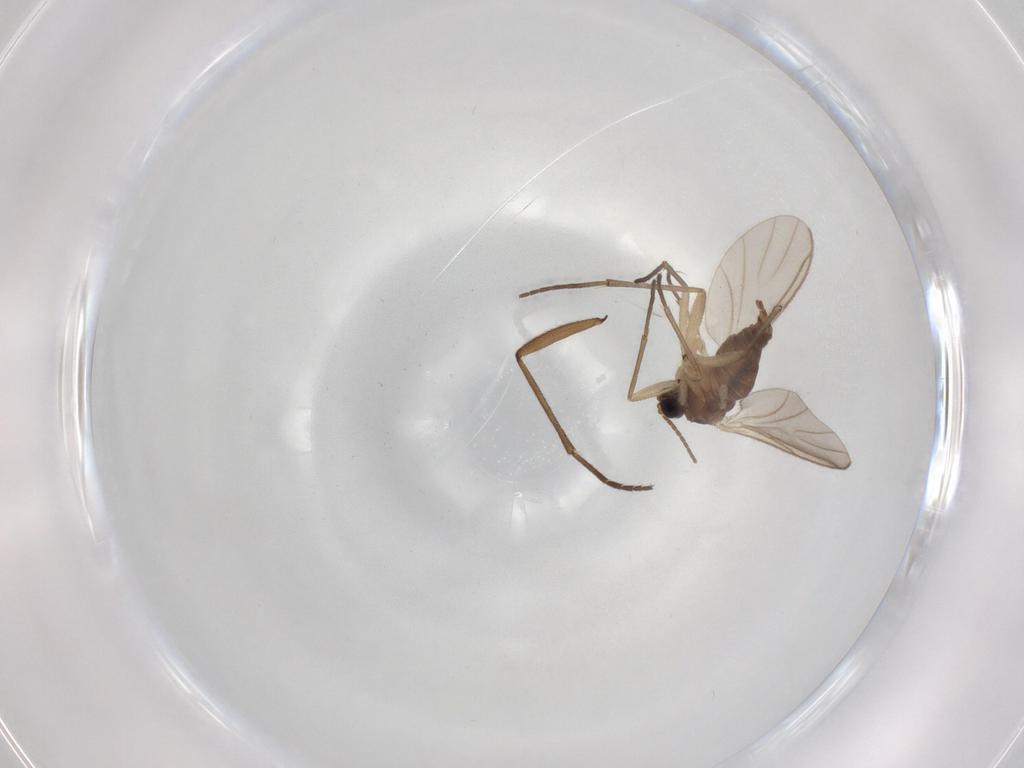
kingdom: Animalia
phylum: Arthropoda
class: Insecta
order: Diptera
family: Sciaridae
